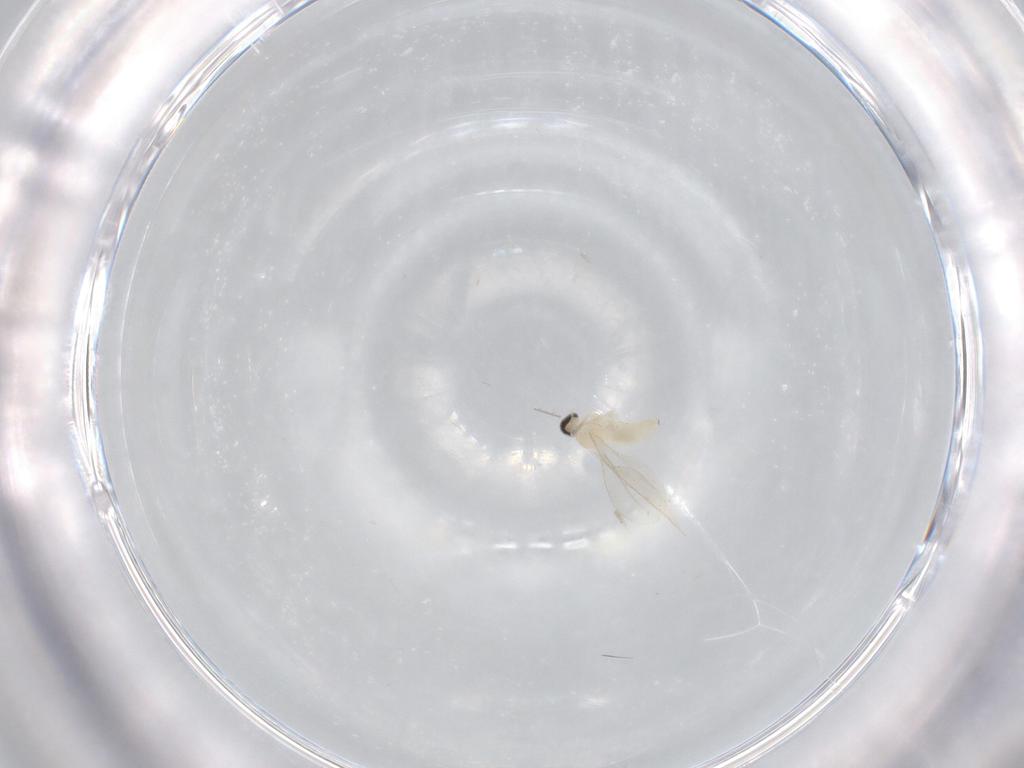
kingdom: Animalia
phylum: Arthropoda
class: Insecta
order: Diptera
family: Cecidomyiidae
